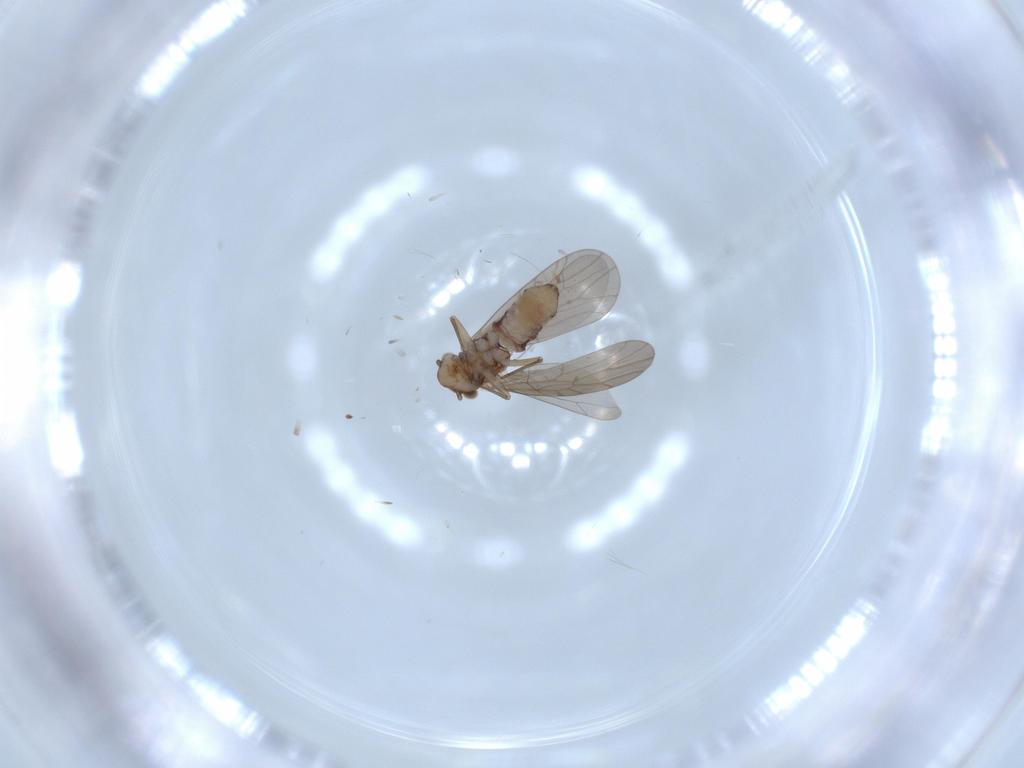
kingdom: Animalia
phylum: Arthropoda
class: Insecta
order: Psocodea
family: Lepidopsocidae
